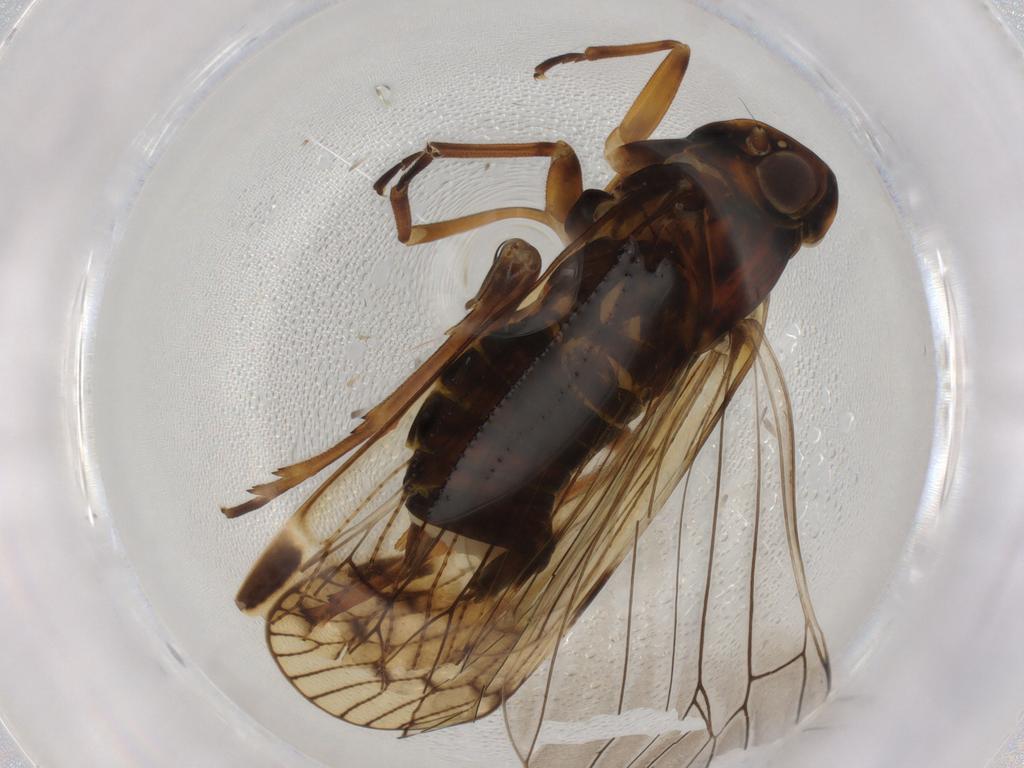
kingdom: Animalia
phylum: Arthropoda
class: Insecta
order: Hemiptera
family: Cixiidae
